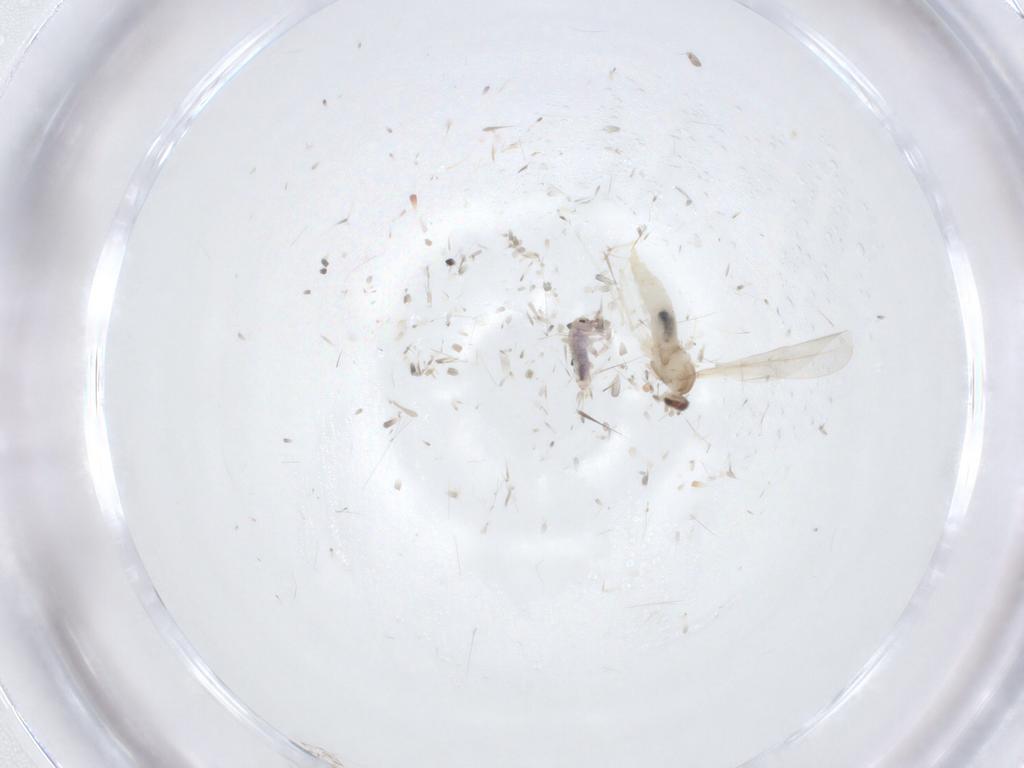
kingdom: Animalia
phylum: Arthropoda
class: Insecta
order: Diptera
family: Cecidomyiidae
